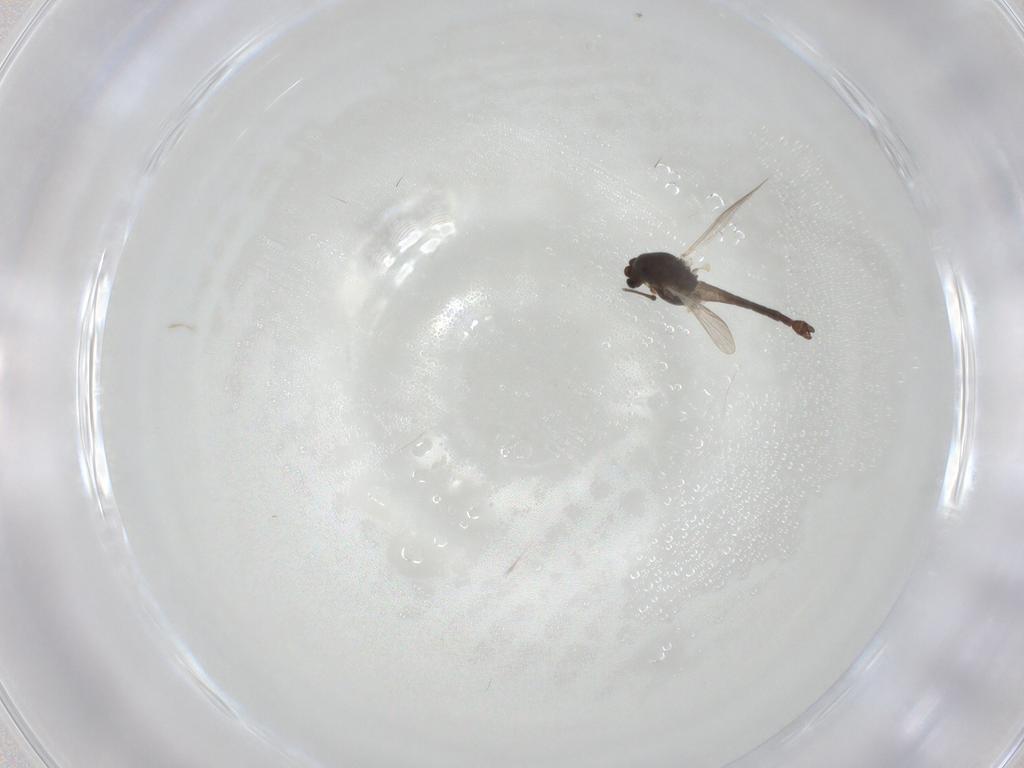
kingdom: Animalia
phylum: Arthropoda
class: Insecta
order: Diptera
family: Chironomidae
